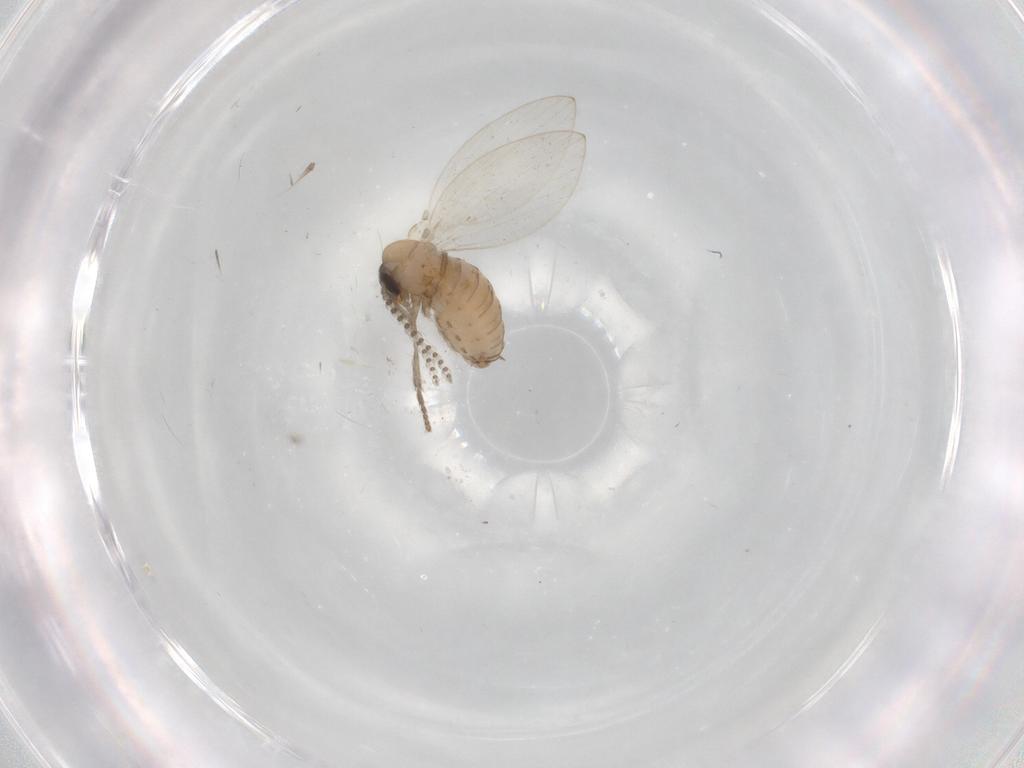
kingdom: Animalia
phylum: Arthropoda
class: Insecta
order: Diptera
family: Psychodidae
